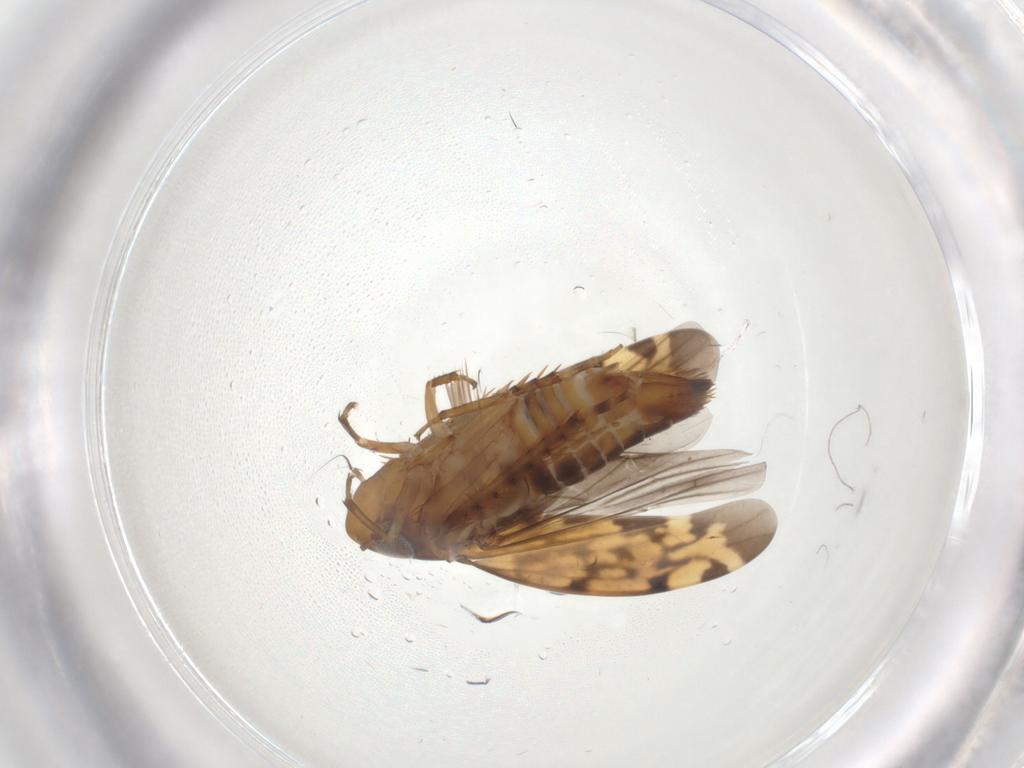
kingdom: Animalia
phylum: Arthropoda
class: Insecta
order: Hemiptera
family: Cicadellidae
